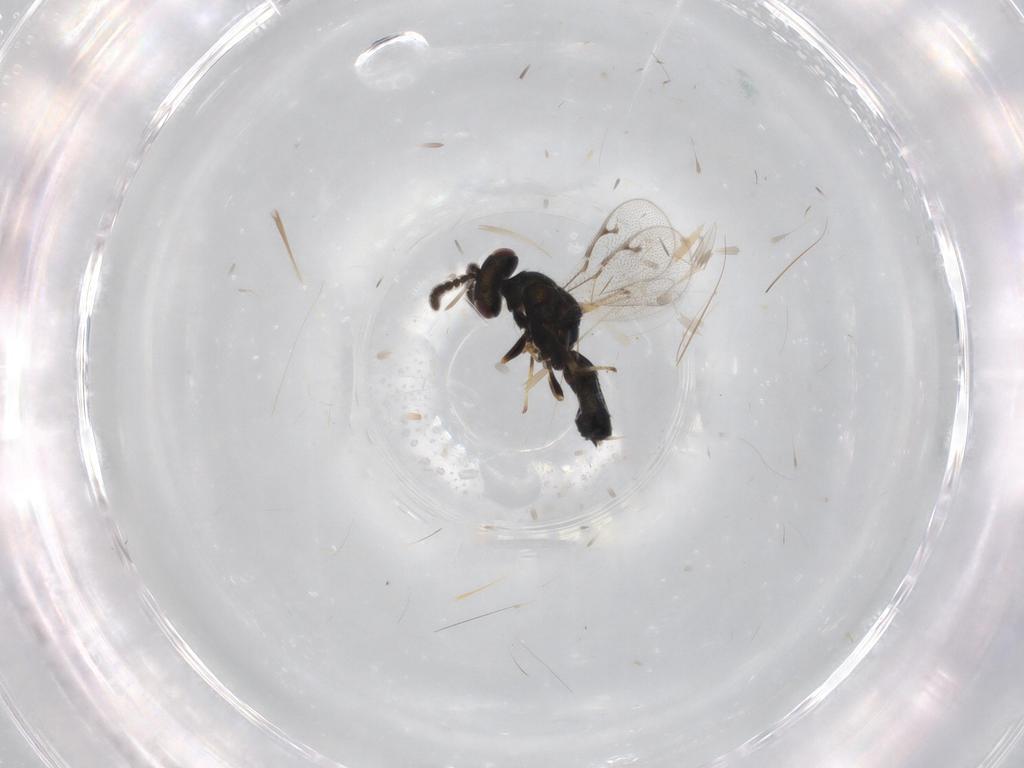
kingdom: Animalia
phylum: Arthropoda
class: Insecta
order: Hymenoptera
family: Pteromalidae
